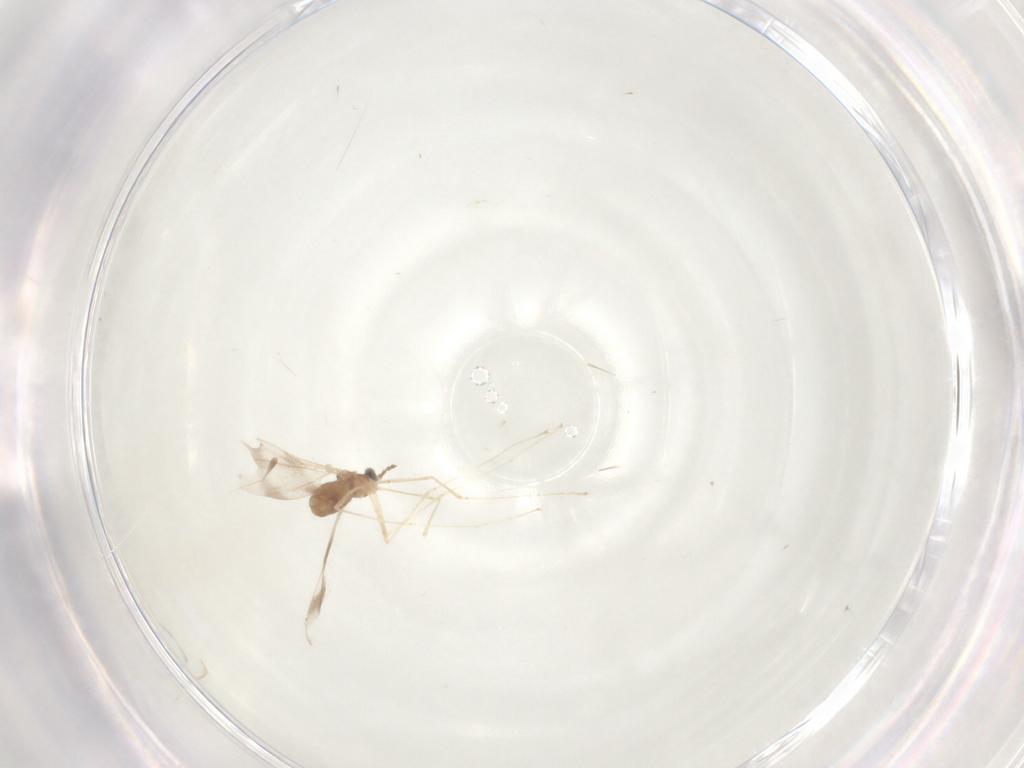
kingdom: Animalia
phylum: Arthropoda
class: Insecta
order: Diptera
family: Cecidomyiidae
